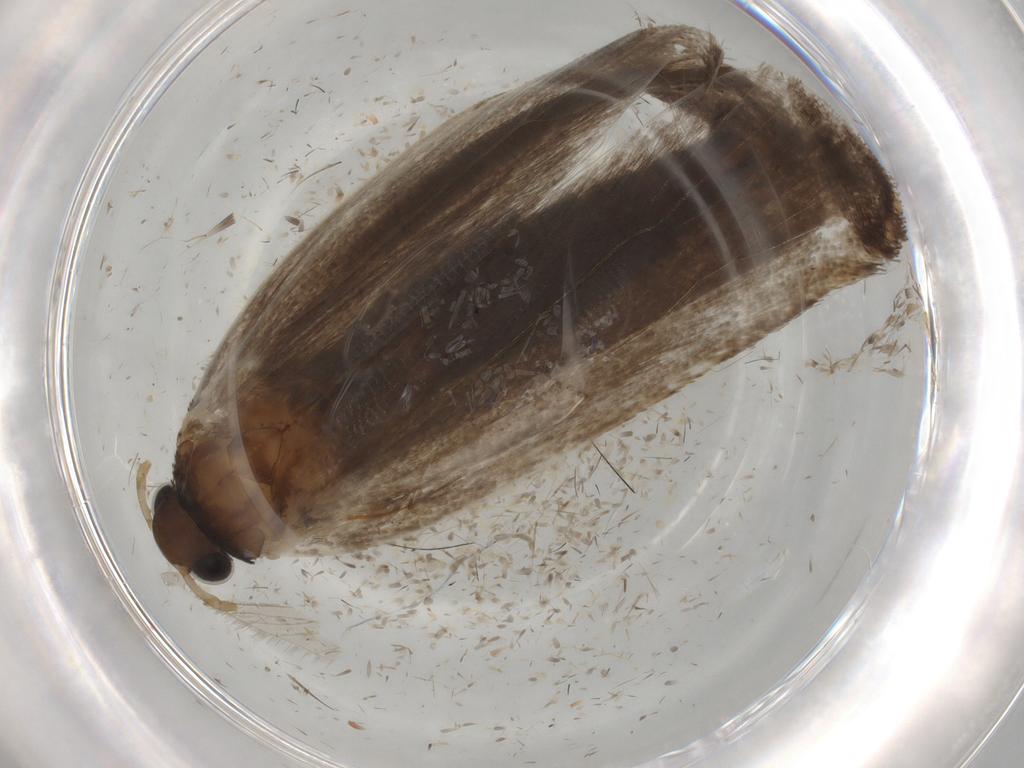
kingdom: Animalia
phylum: Arthropoda
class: Insecta
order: Lepidoptera
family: Nepticulidae
